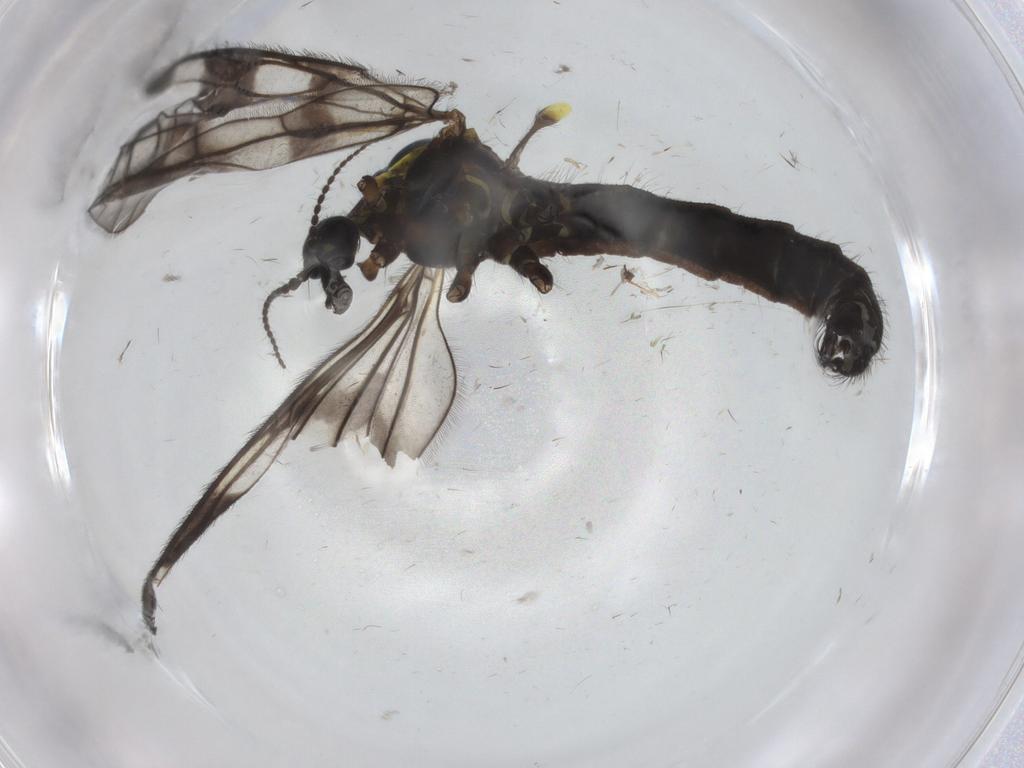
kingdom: Animalia
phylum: Arthropoda
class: Insecta
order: Diptera
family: Limoniidae
